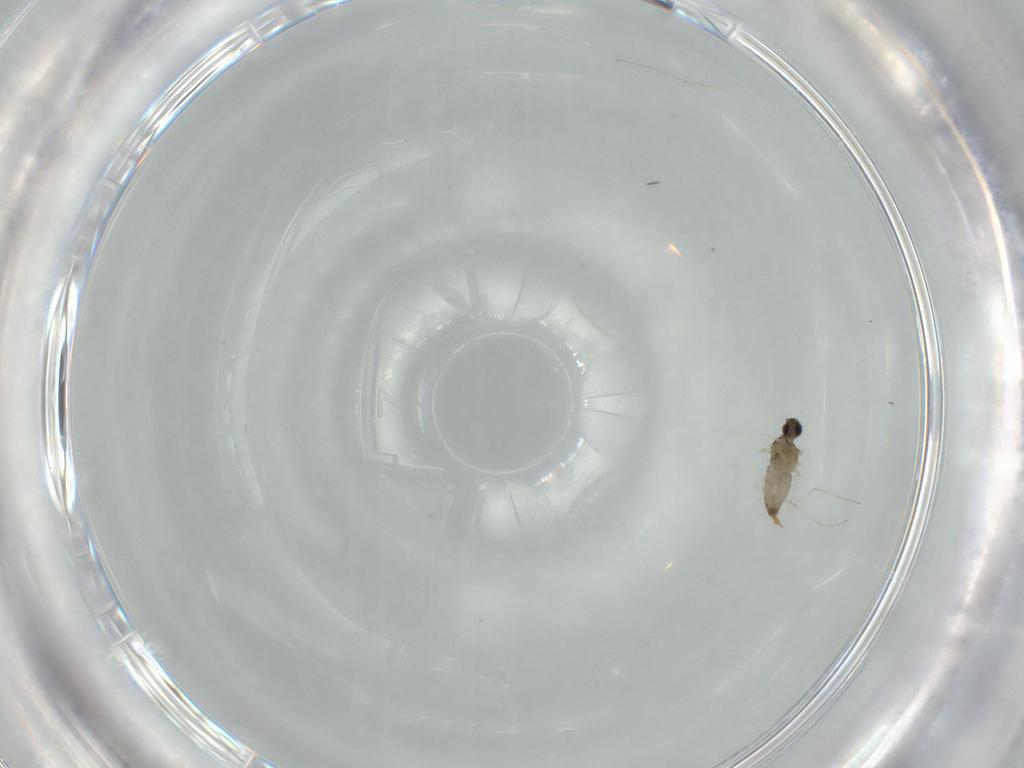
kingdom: Animalia
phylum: Arthropoda
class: Insecta
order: Diptera
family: Cecidomyiidae
